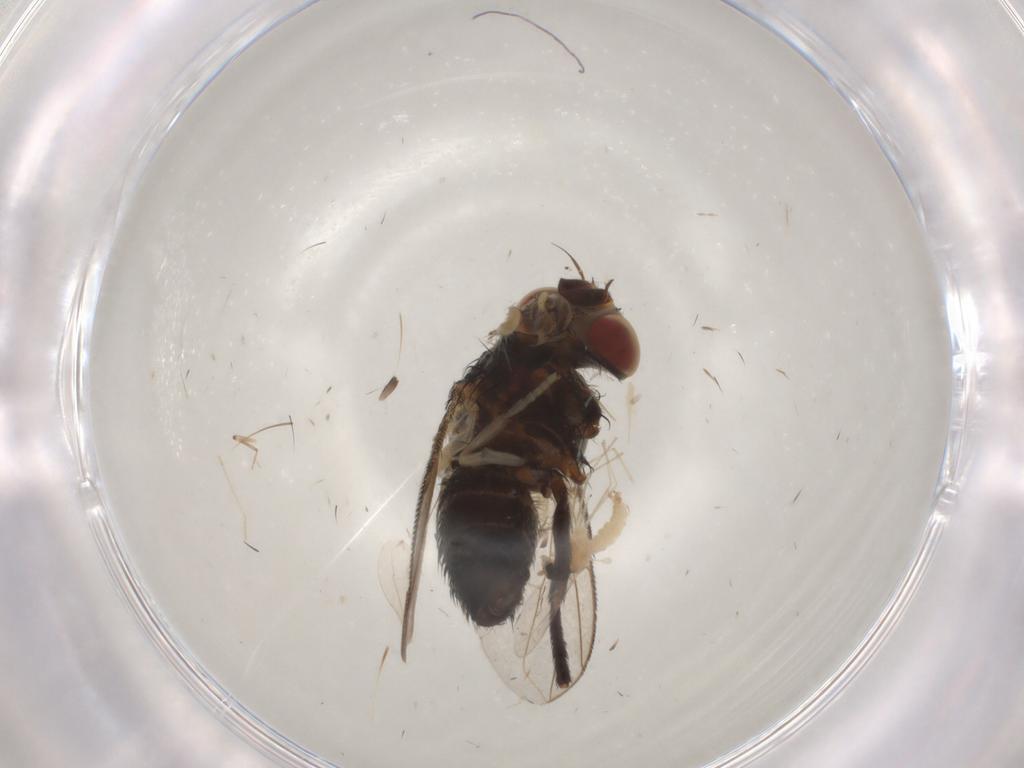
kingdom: Animalia
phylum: Arthropoda
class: Insecta
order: Diptera
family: Tachinidae
